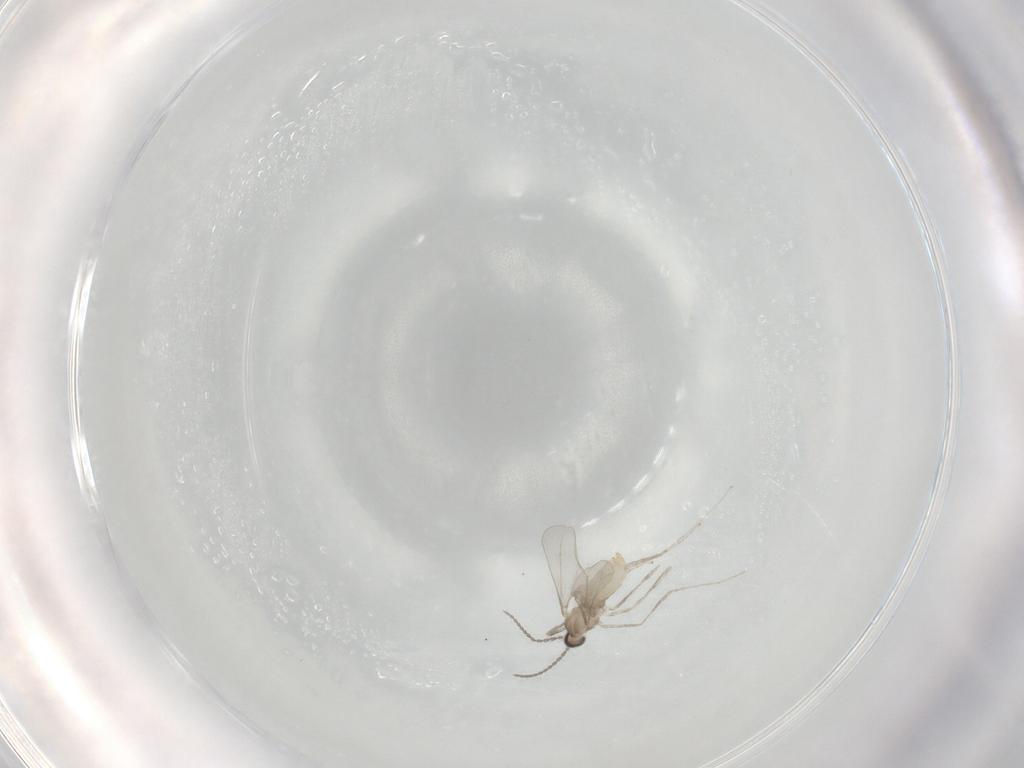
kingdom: Animalia
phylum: Arthropoda
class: Insecta
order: Diptera
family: Cecidomyiidae
